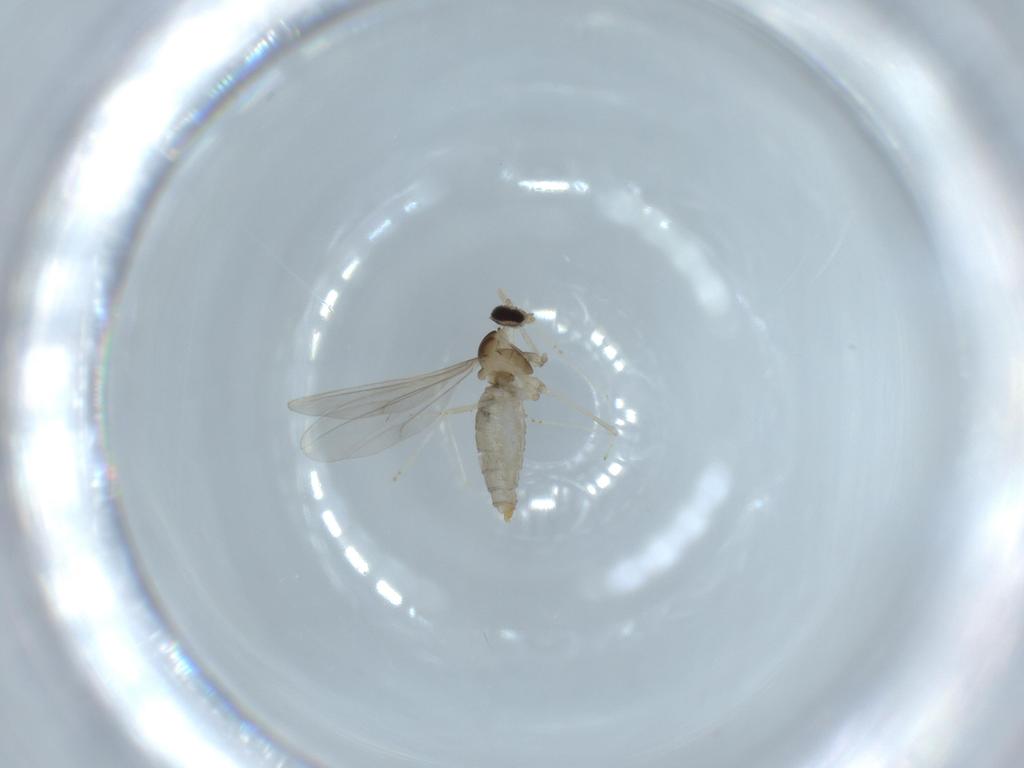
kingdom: Animalia
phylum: Arthropoda
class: Insecta
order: Diptera
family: Cecidomyiidae
